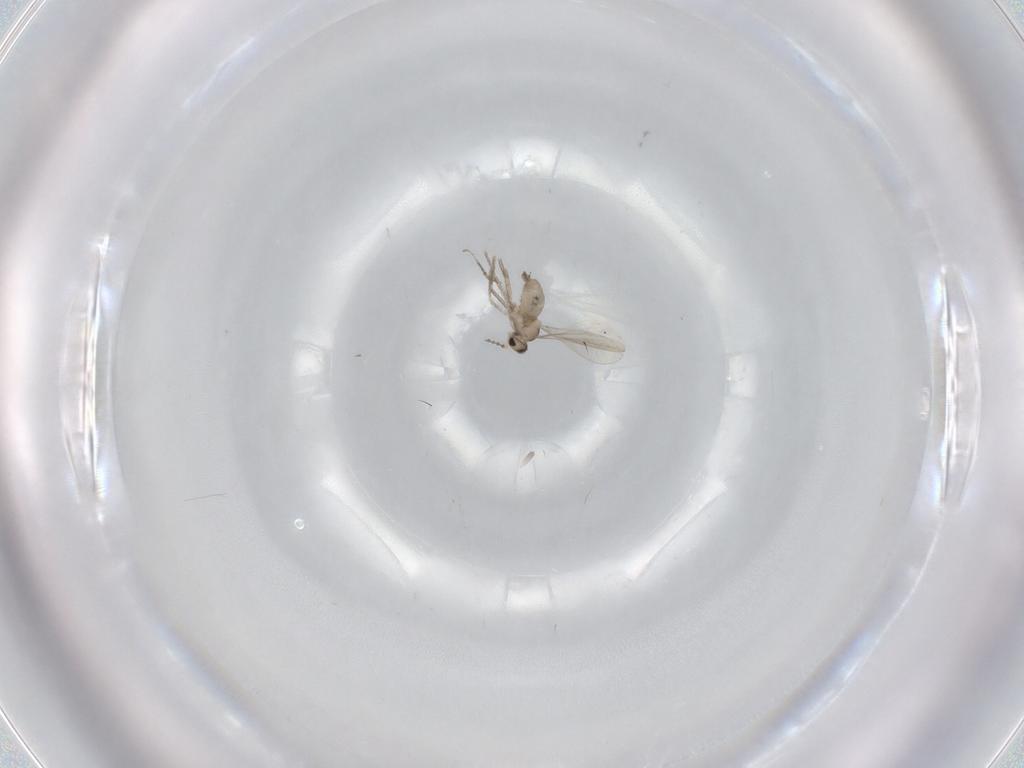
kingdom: Animalia
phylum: Arthropoda
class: Insecta
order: Diptera
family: Cecidomyiidae
